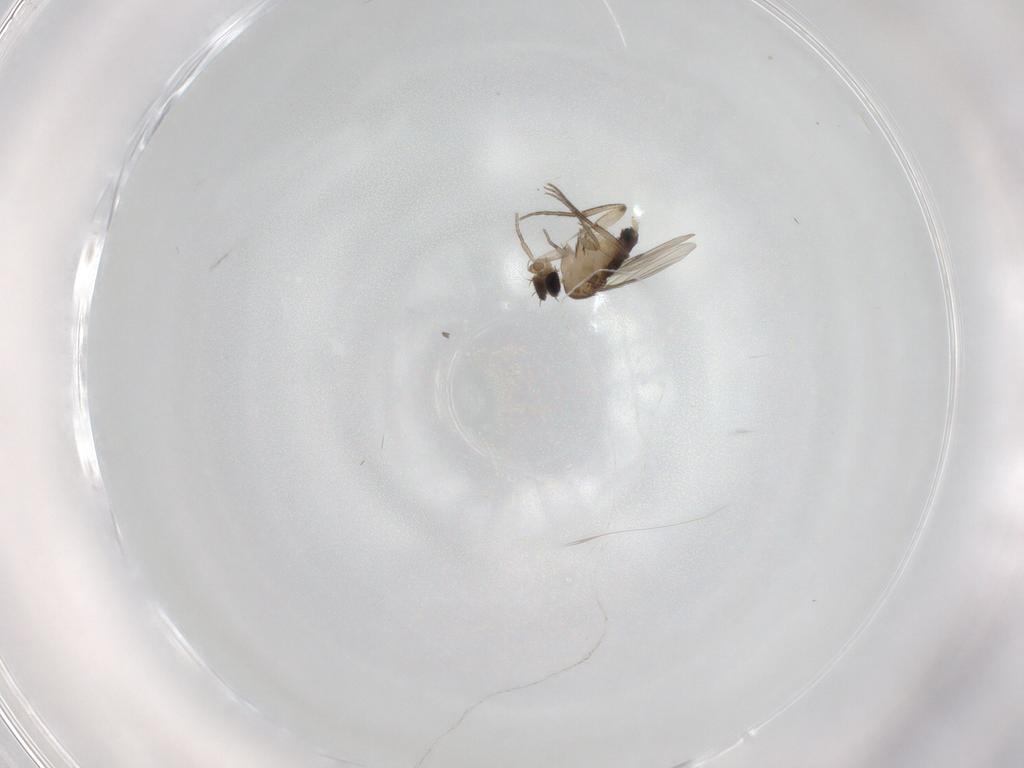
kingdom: Animalia
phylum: Arthropoda
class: Insecta
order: Diptera
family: Phoridae
